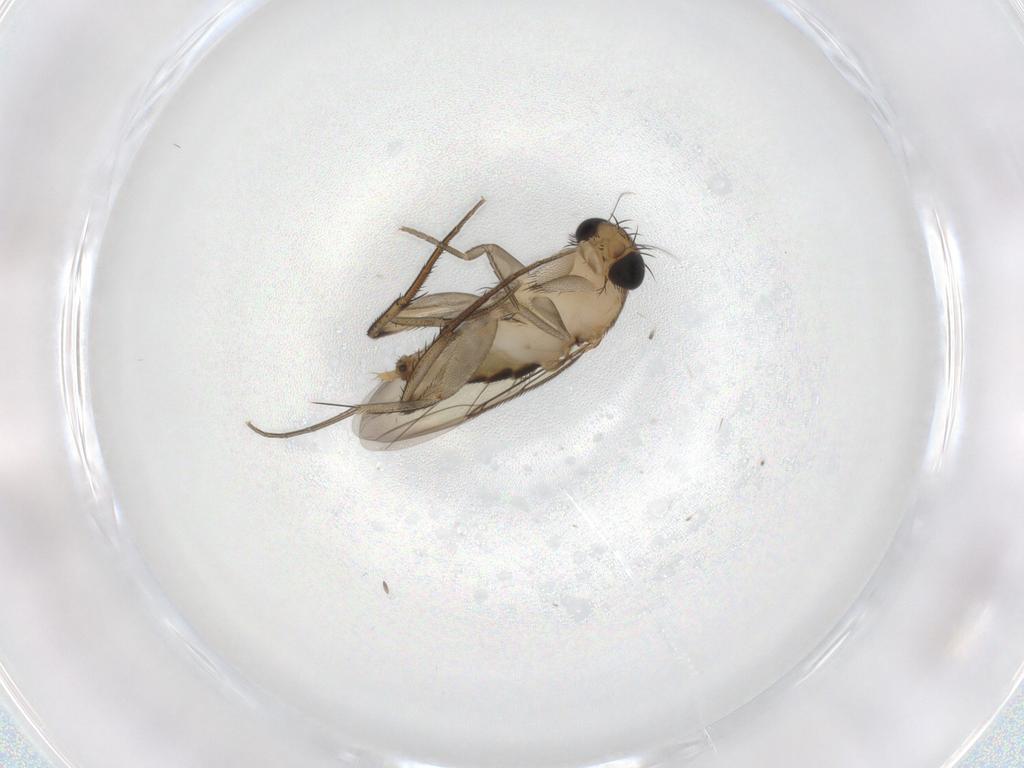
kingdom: Animalia
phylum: Arthropoda
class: Insecta
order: Diptera
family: Phoridae
